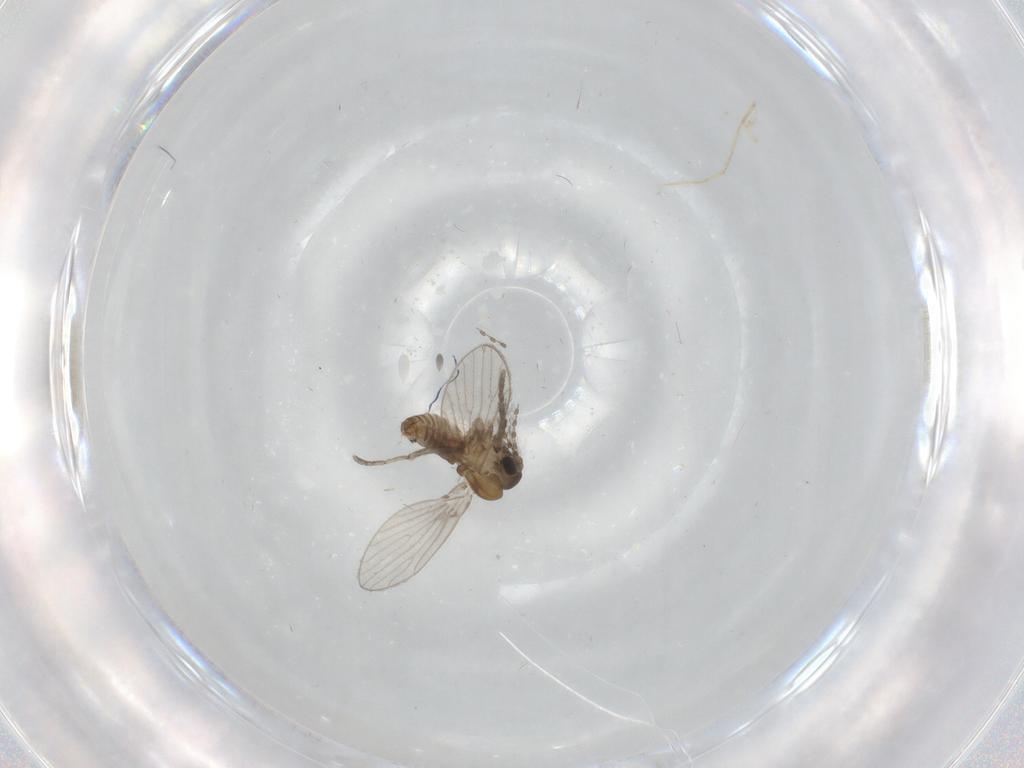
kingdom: Animalia
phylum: Arthropoda
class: Insecta
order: Diptera
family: Psychodidae
